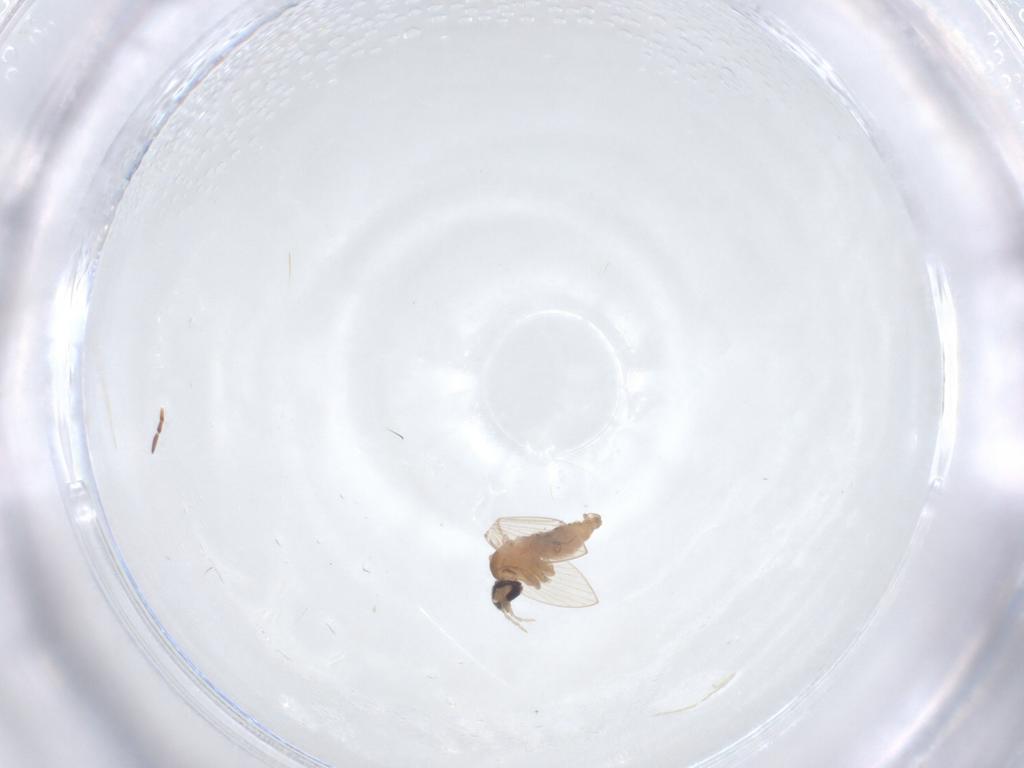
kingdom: Animalia
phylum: Arthropoda
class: Insecta
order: Diptera
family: Psychodidae
